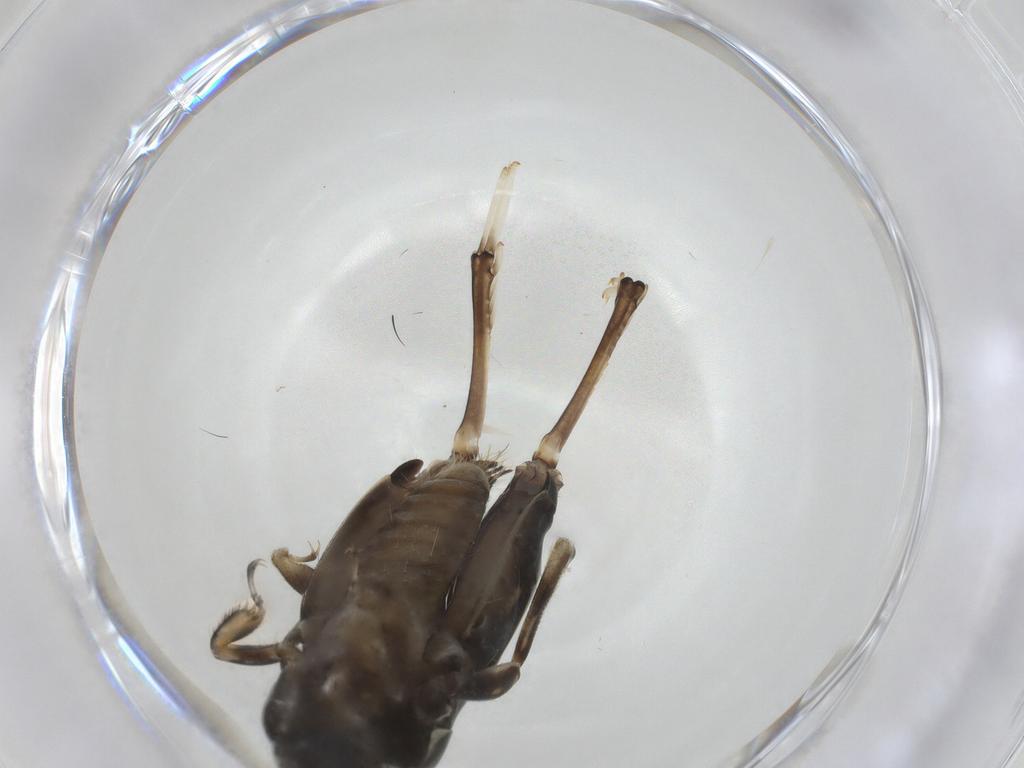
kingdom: Animalia
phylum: Arthropoda
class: Insecta
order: Orthoptera
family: Tridactylidae
